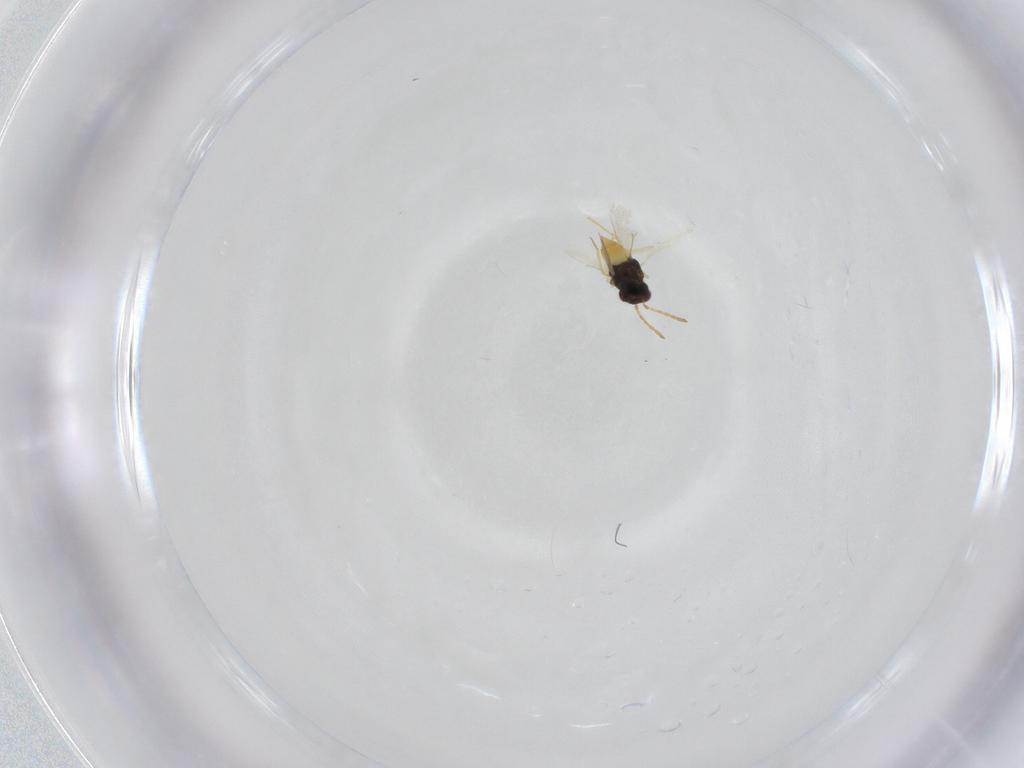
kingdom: Animalia
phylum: Arthropoda
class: Insecta
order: Hymenoptera
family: Aphelinidae
